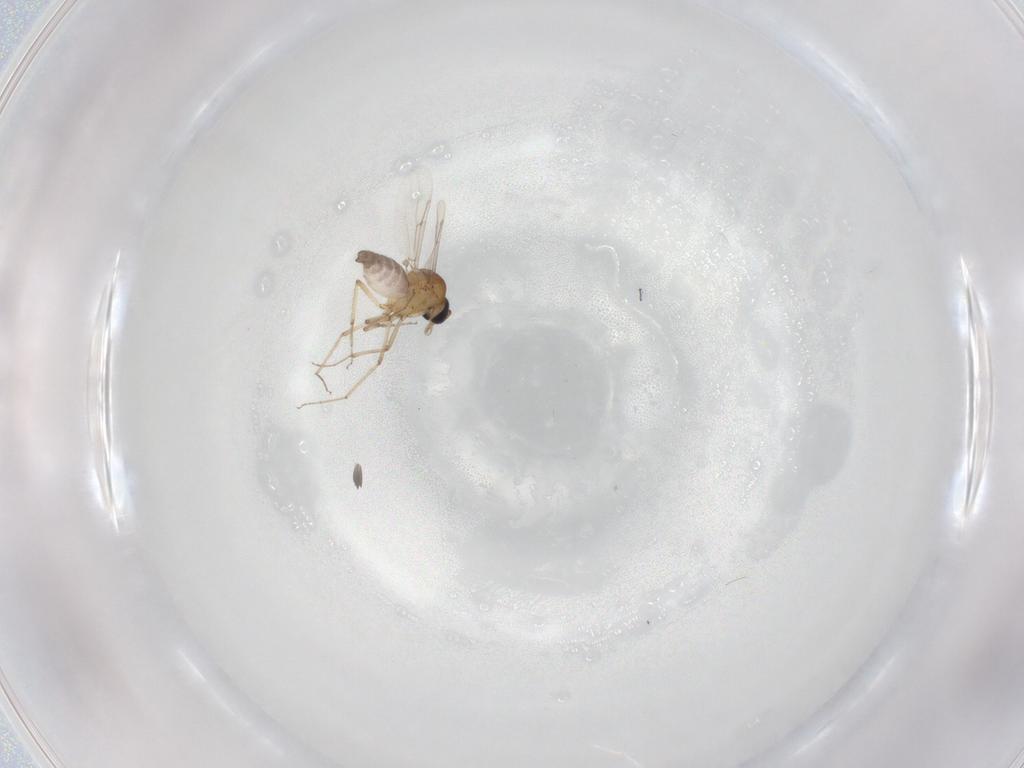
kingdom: Animalia
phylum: Arthropoda
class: Insecta
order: Diptera
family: Ceratopogonidae
